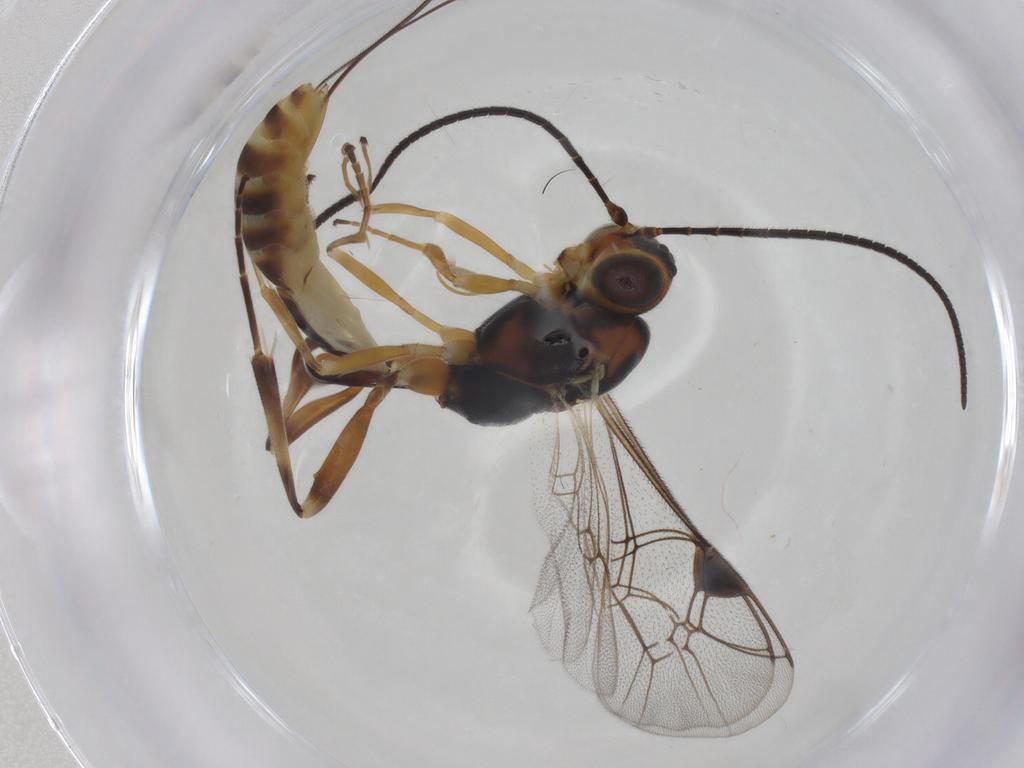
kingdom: Animalia
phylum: Arthropoda
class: Insecta
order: Hymenoptera
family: Ichneumonidae
